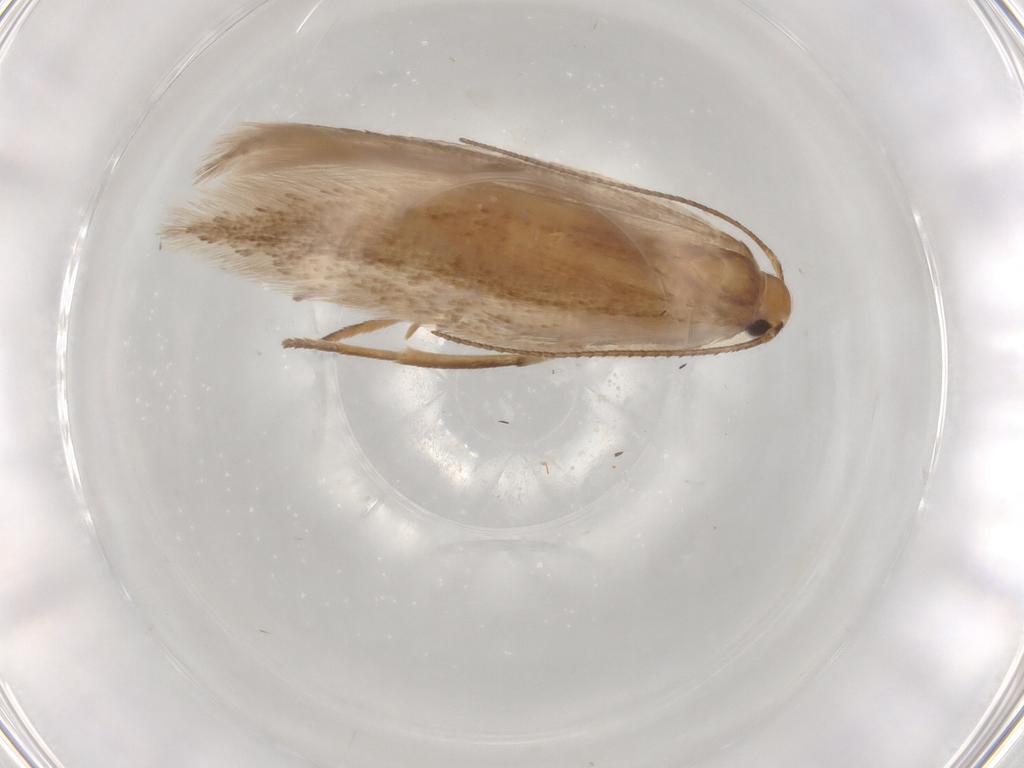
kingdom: Animalia
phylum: Arthropoda
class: Insecta
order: Lepidoptera
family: Gelechiidae
